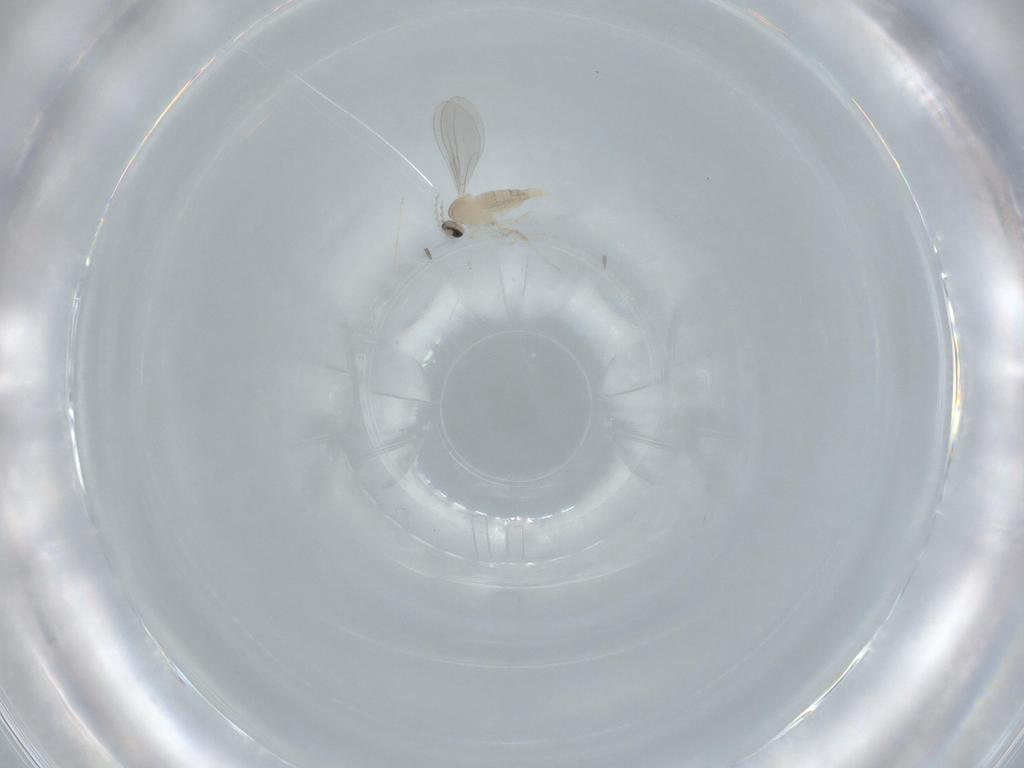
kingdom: Animalia
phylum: Arthropoda
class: Insecta
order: Diptera
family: Cecidomyiidae
